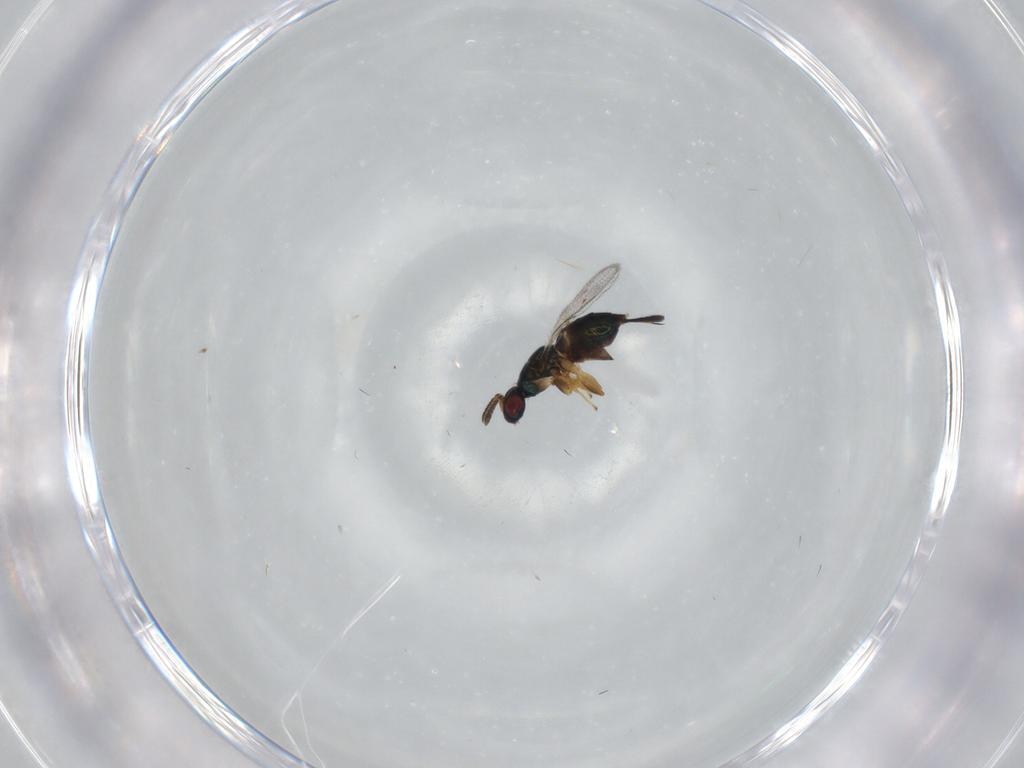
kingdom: Animalia
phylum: Arthropoda
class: Insecta
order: Hymenoptera
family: Torymidae
